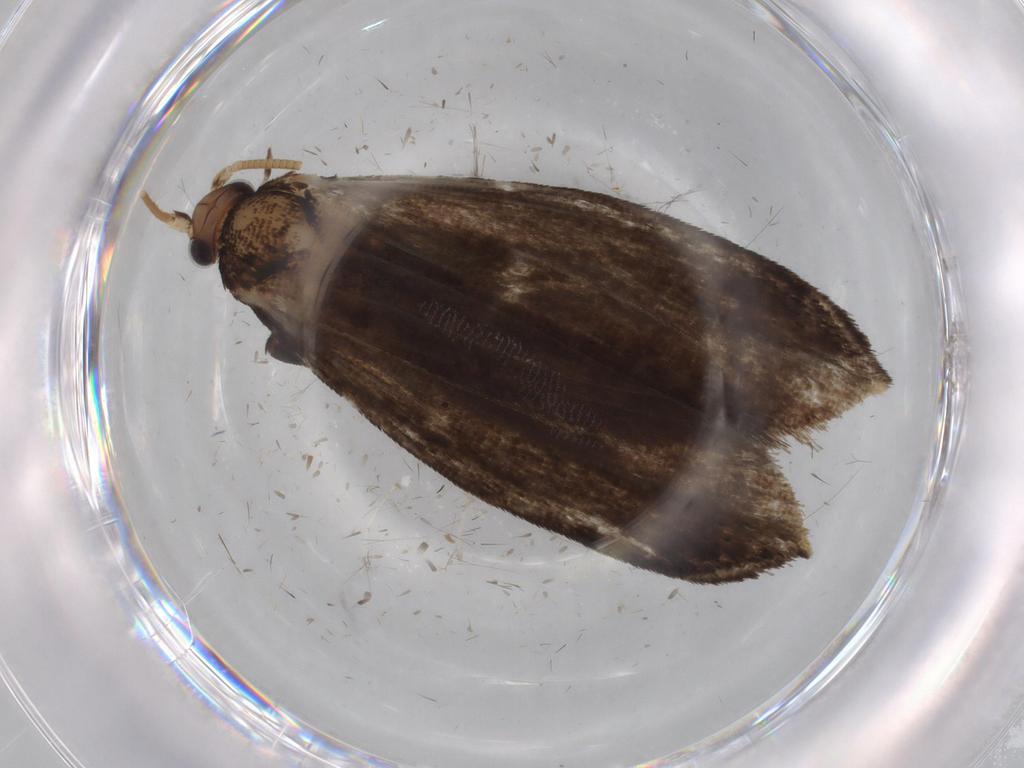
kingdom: Animalia
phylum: Arthropoda
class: Insecta
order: Lepidoptera
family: Tineidae
